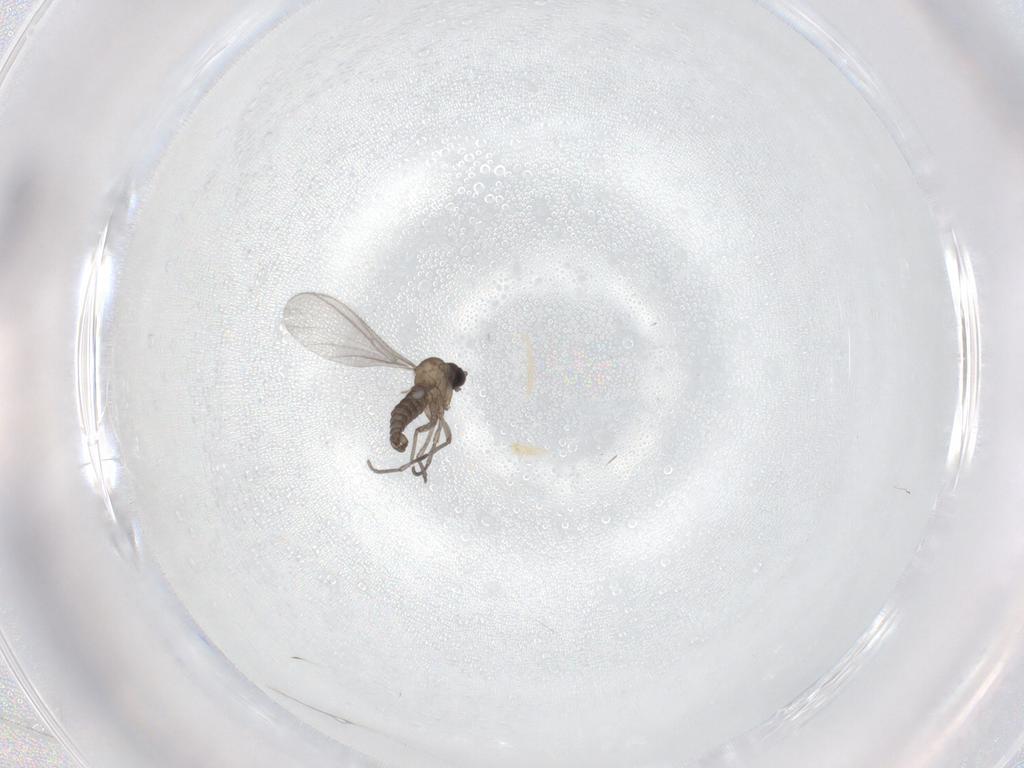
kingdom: Animalia
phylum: Arthropoda
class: Insecta
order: Diptera
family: Sciaridae
